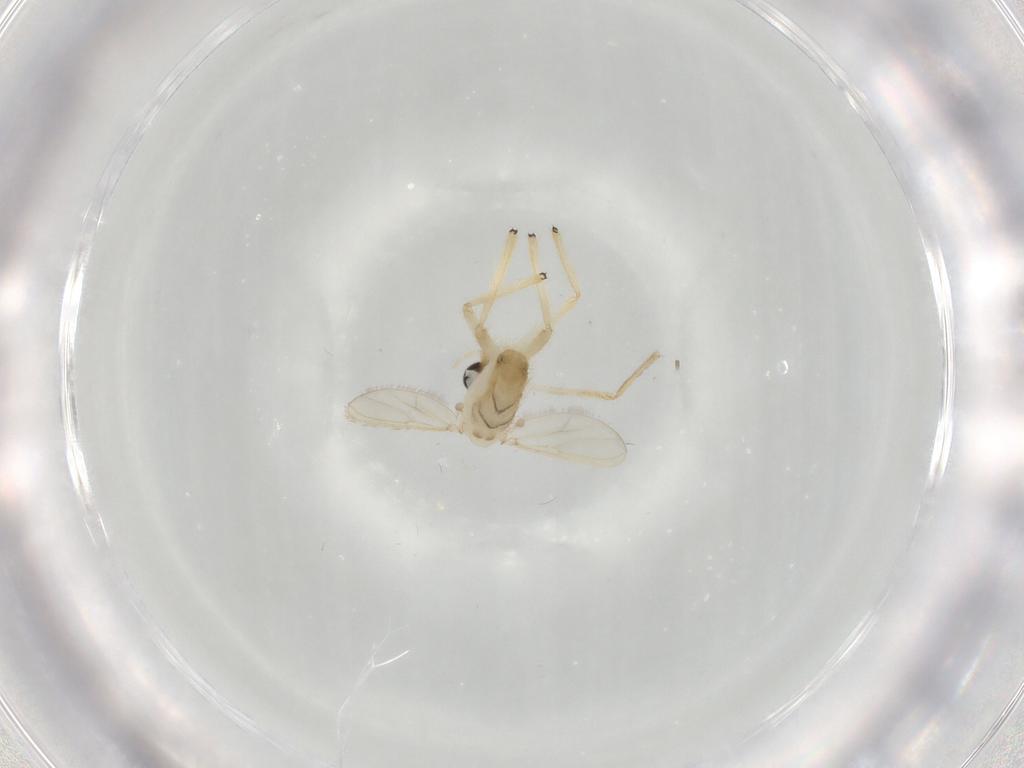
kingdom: Animalia
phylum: Arthropoda
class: Insecta
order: Diptera
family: Chironomidae
